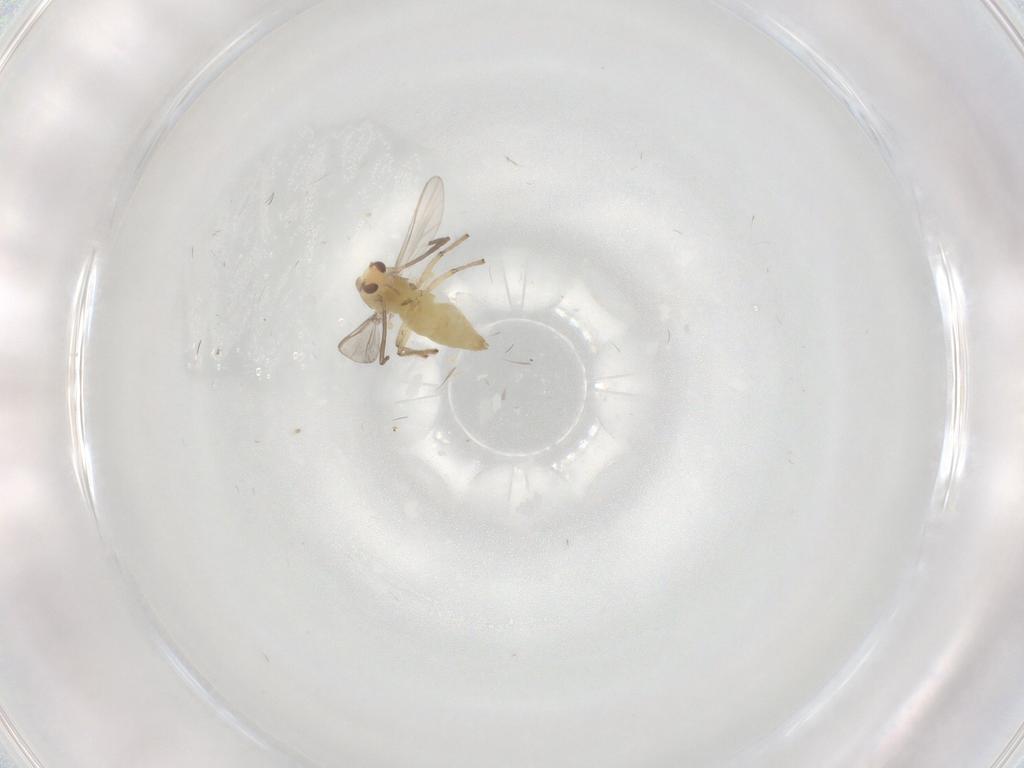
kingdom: Animalia
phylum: Arthropoda
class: Insecta
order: Diptera
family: Chironomidae
